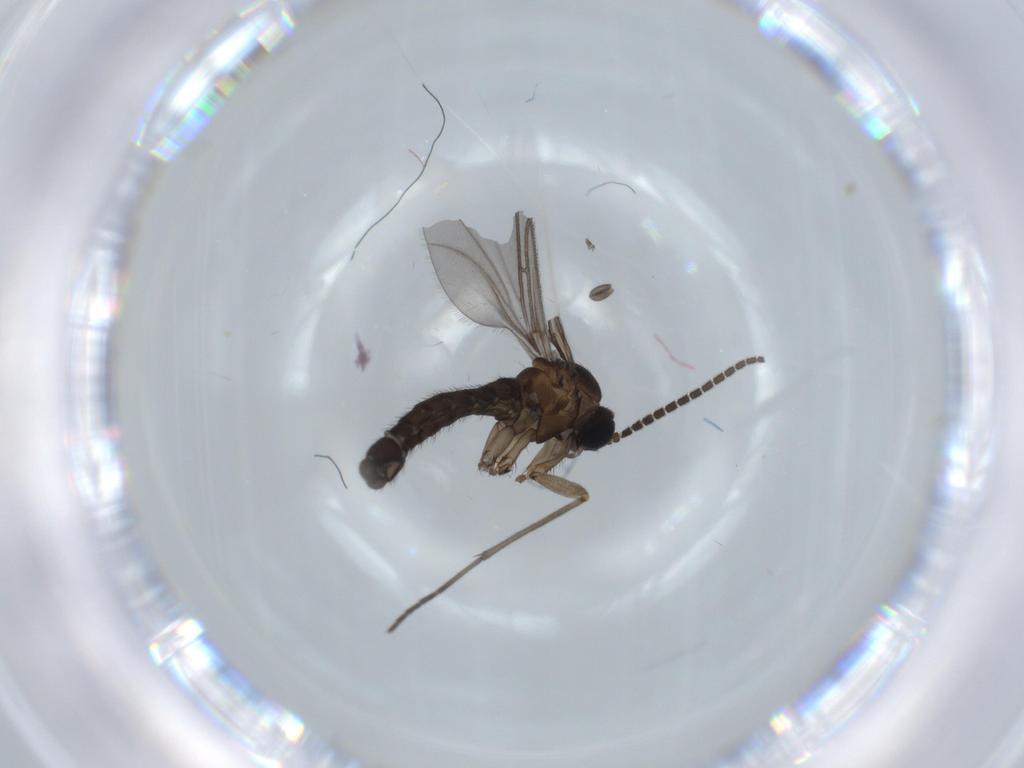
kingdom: Animalia
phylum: Arthropoda
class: Insecta
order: Diptera
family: Sciaridae
